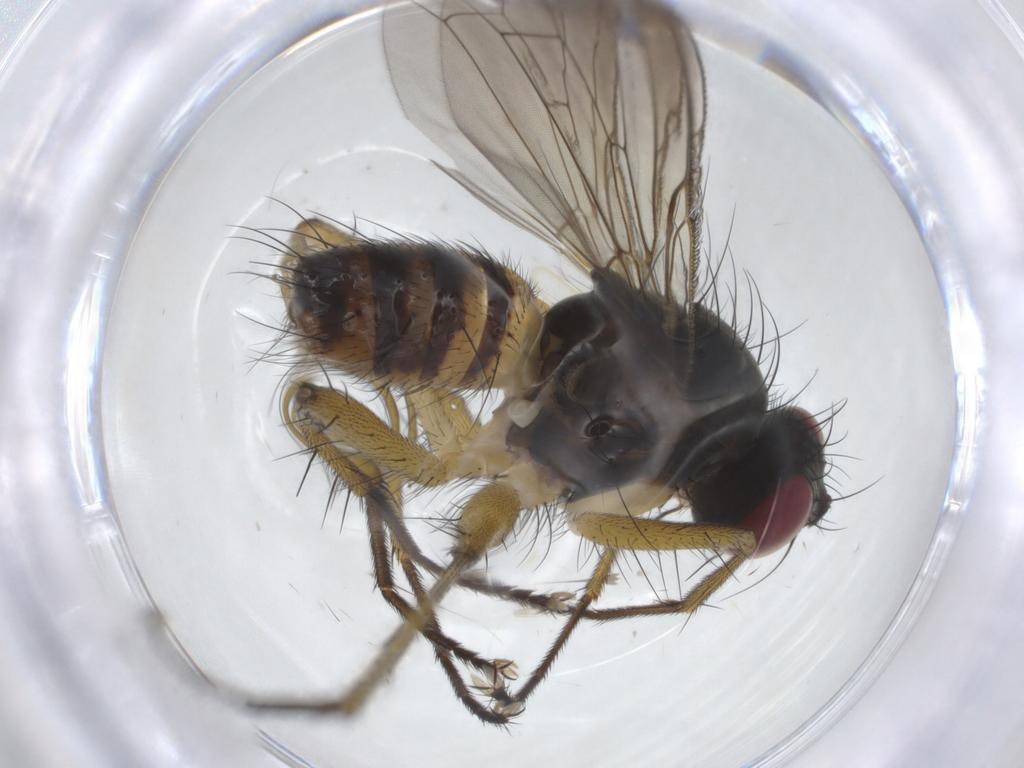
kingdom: Animalia
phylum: Arthropoda
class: Insecta
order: Diptera
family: Muscidae
